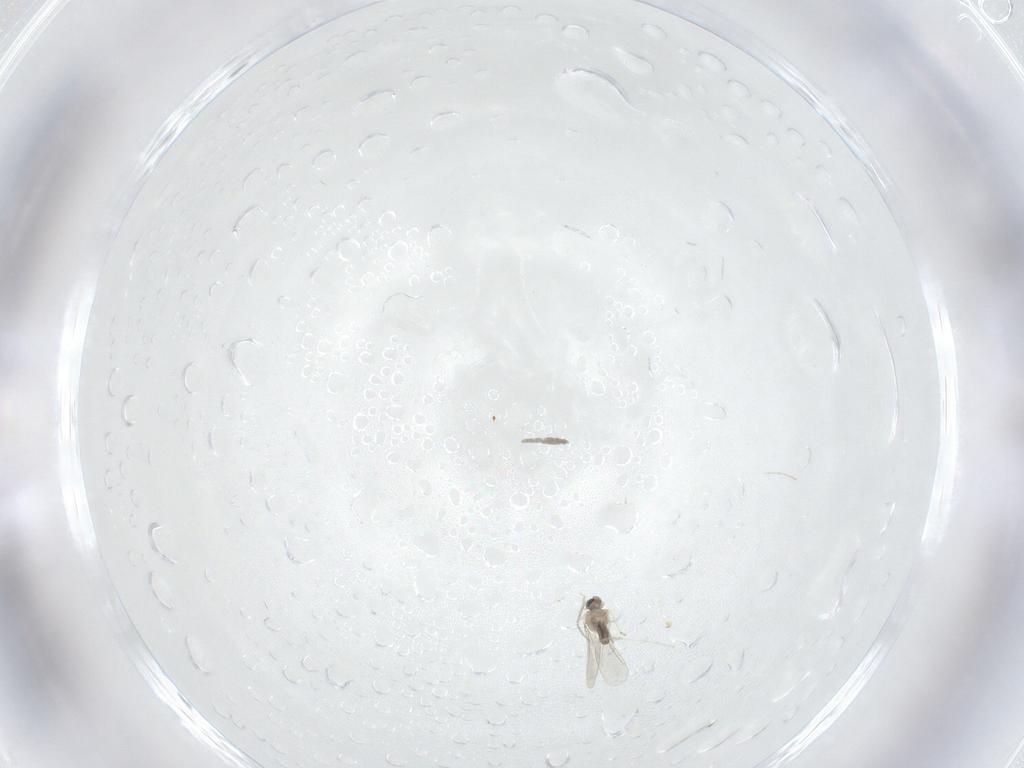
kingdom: Animalia
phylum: Arthropoda
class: Insecta
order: Diptera
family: Cecidomyiidae
